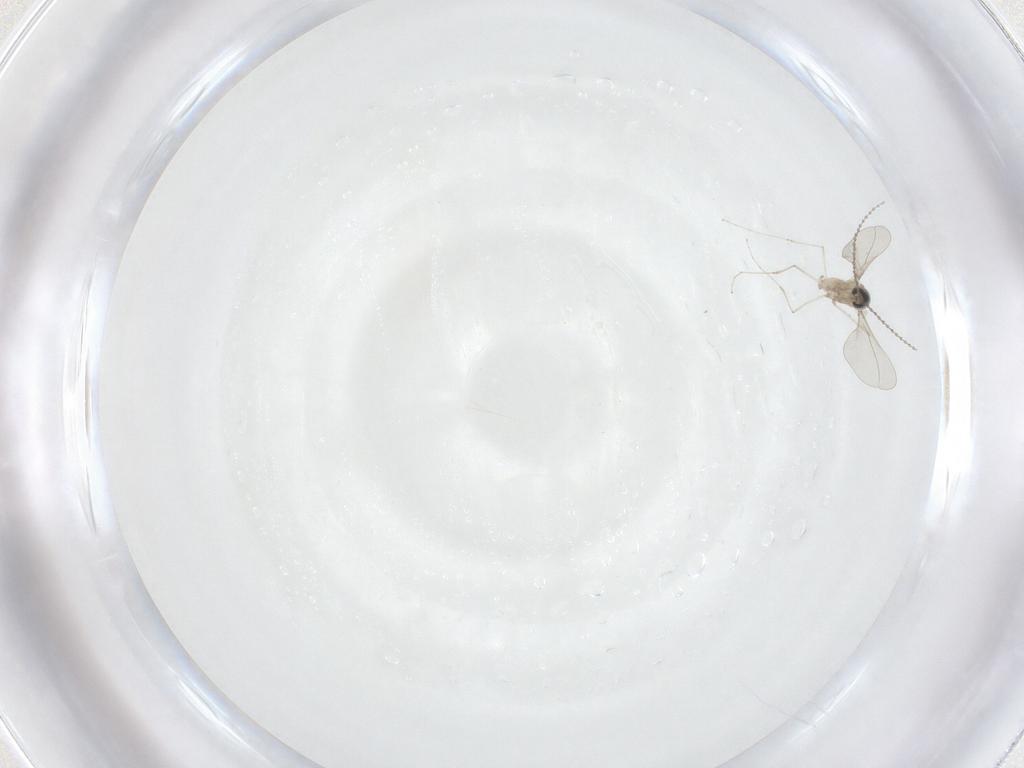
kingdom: Animalia
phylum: Arthropoda
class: Insecta
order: Diptera
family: Cecidomyiidae
